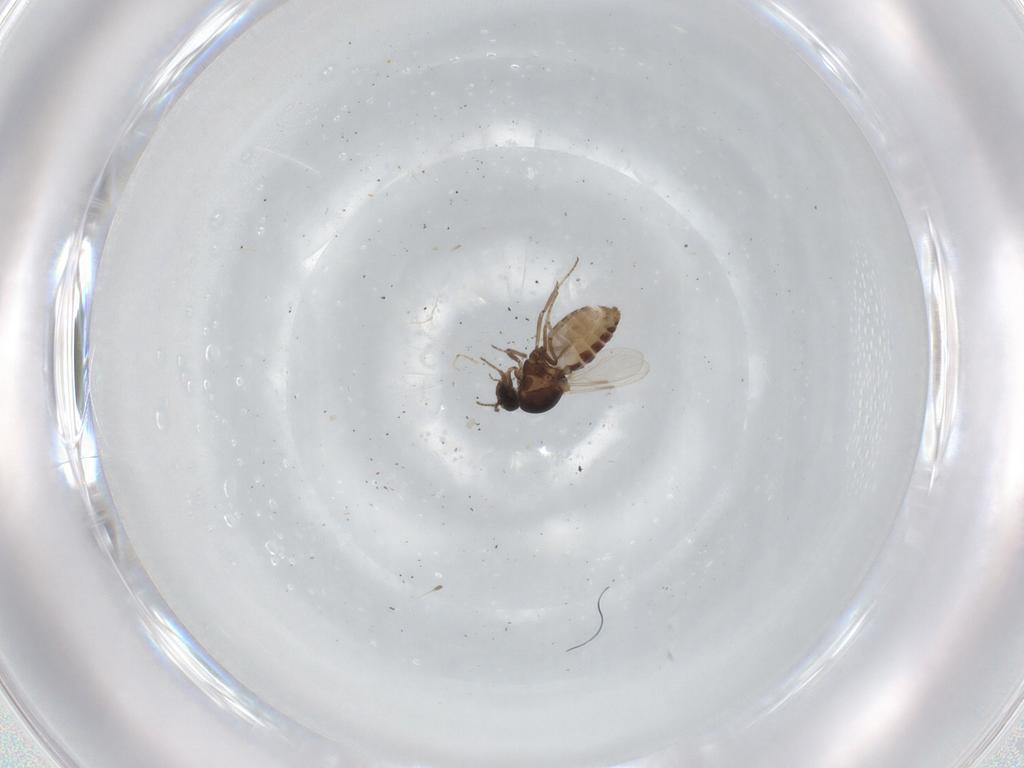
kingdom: Animalia
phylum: Arthropoda
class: Insecta
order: Diptera
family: Ceratopogonidae
